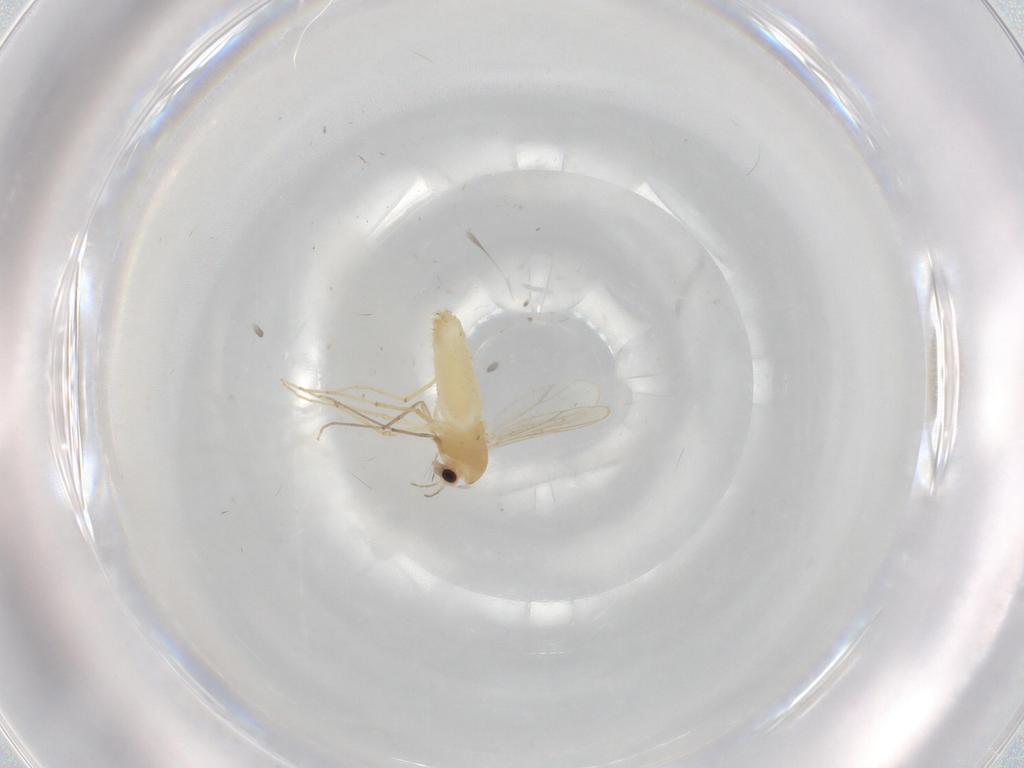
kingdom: Animalia
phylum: Arthropoda
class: Insecta
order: Diptera
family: Chironomidae
